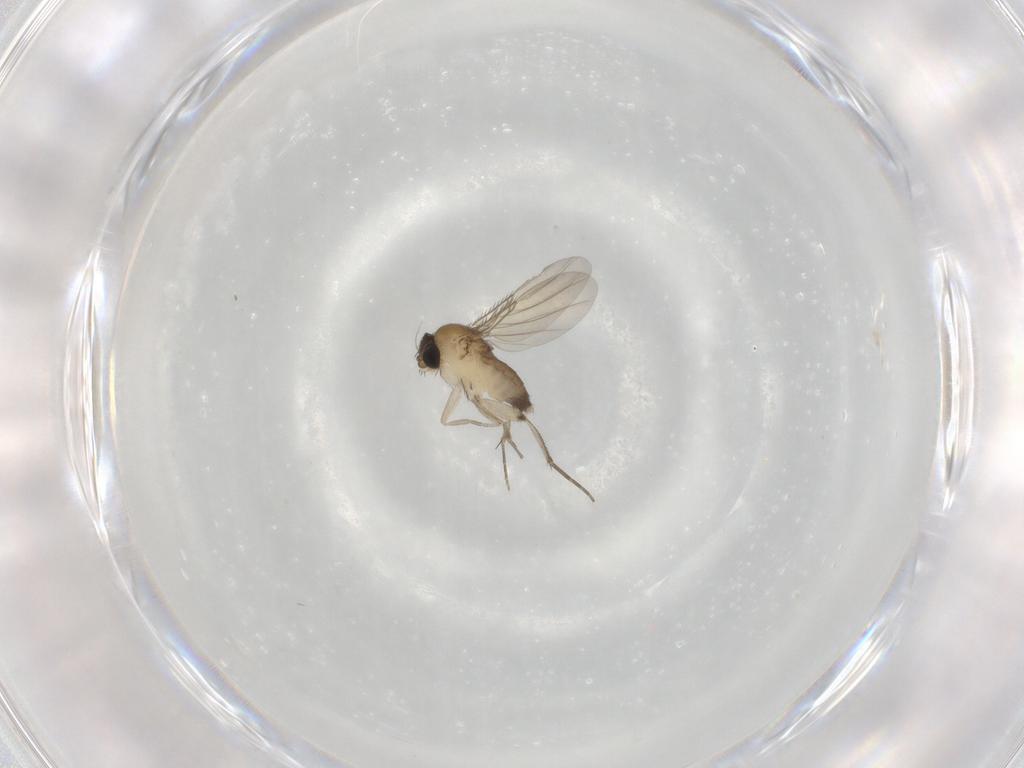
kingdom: Animalia
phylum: Arthropoda
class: Insecta
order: Diptera
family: Phoridae
